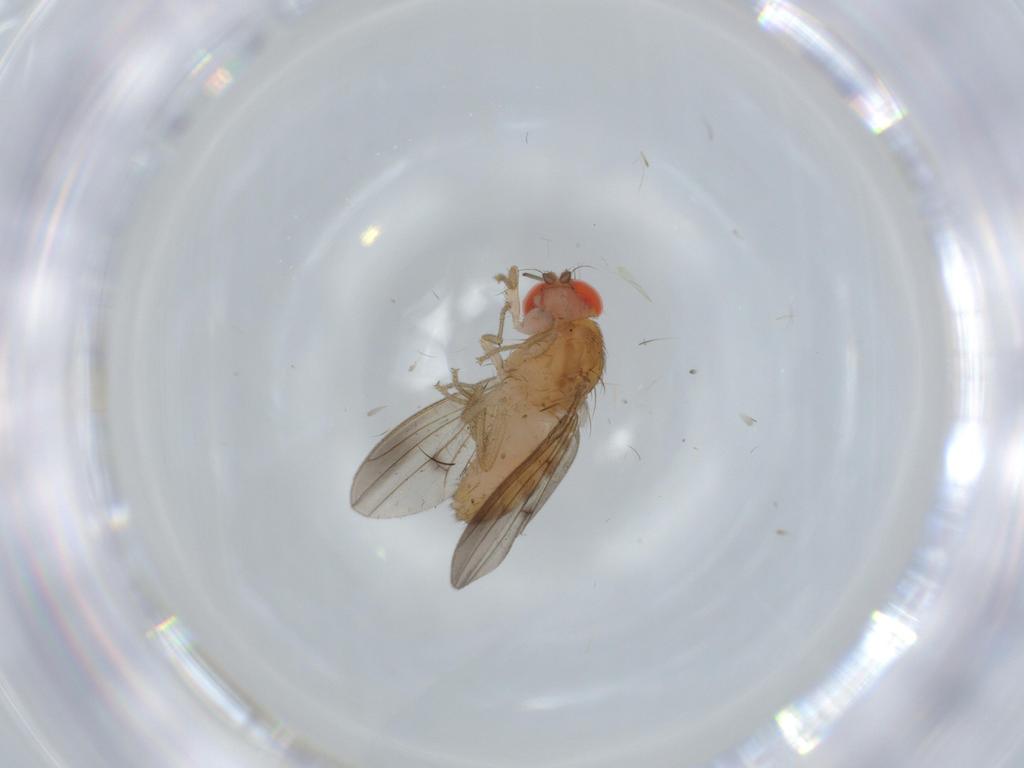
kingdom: Animalia
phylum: Arthropoda
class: Insecta
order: Diptera
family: Drosophilidae
